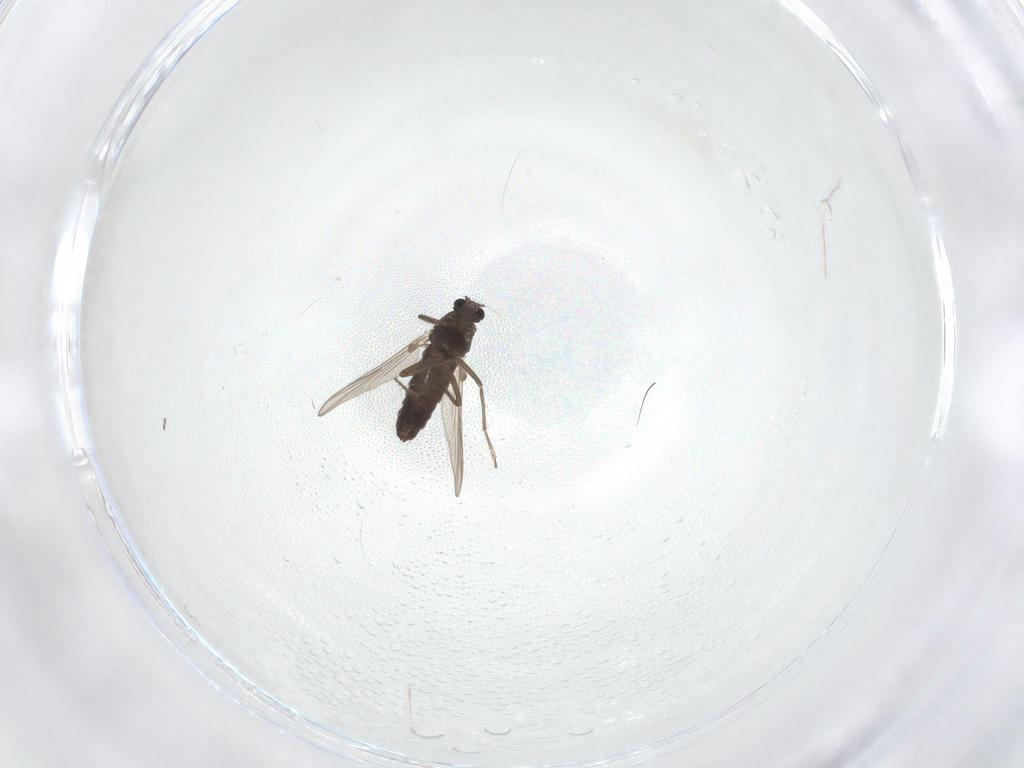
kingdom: Animalia
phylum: Arthropoda
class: Insecta
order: Diptera
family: Chironomidae
